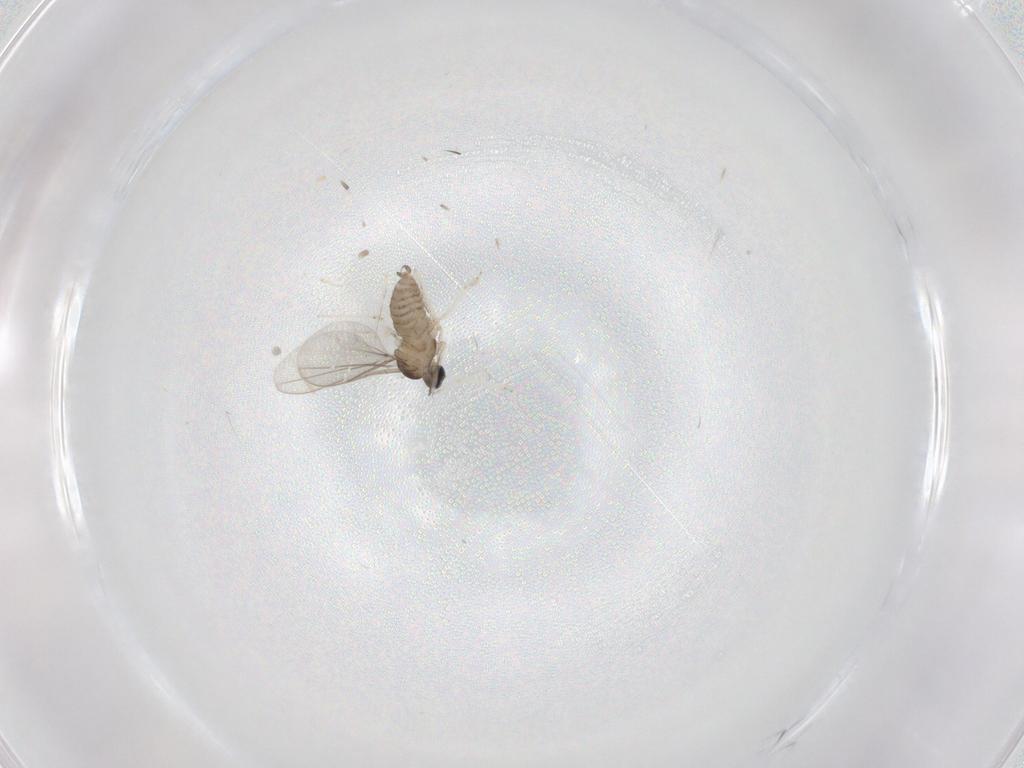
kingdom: Animalia
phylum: Arthropoda
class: Insecta
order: Diptera
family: Cecidomyiidae
